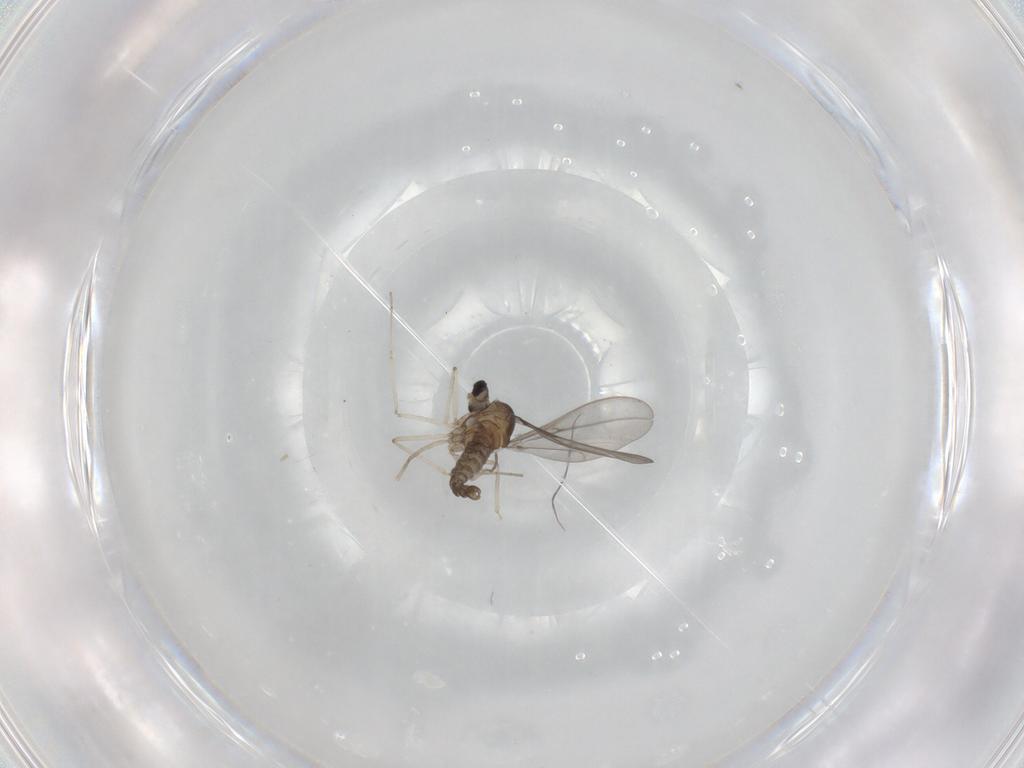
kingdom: Animalia
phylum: Arthropoda
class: Insecta
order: Diptera
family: Cecidomyiidae
